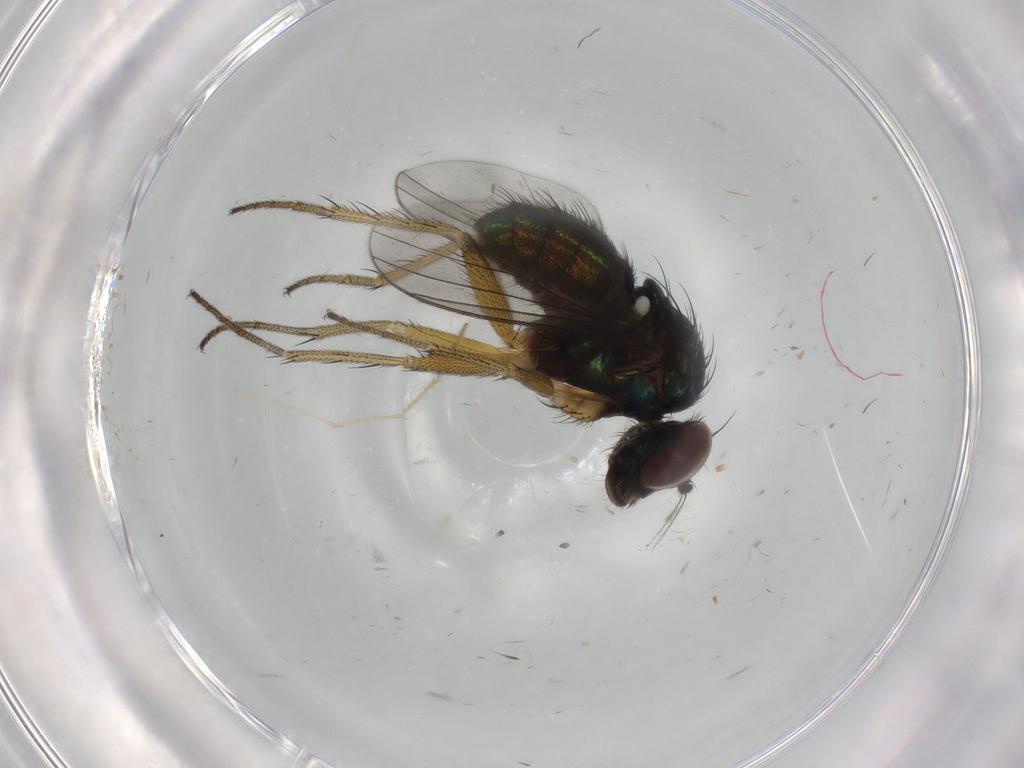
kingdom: Animalia
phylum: Arthropoda
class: Insecta
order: Diptera
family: Dolichopodidae
